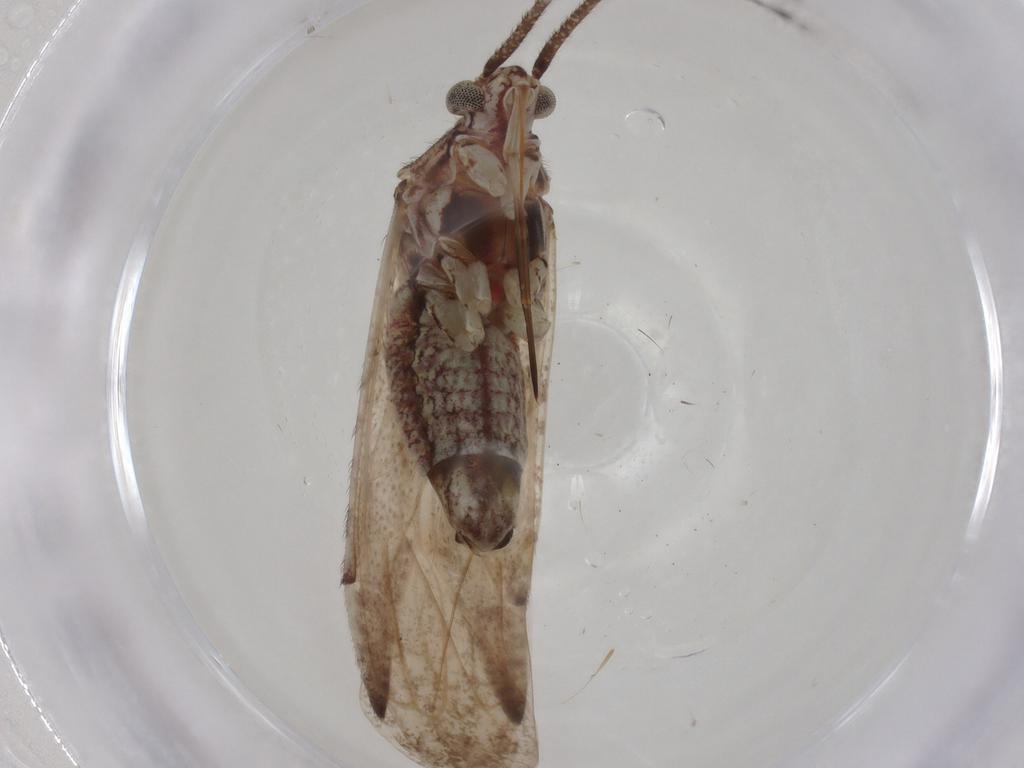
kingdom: Animalia
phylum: Arthropoda
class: Insecta
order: Hemiptera
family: Miridae
